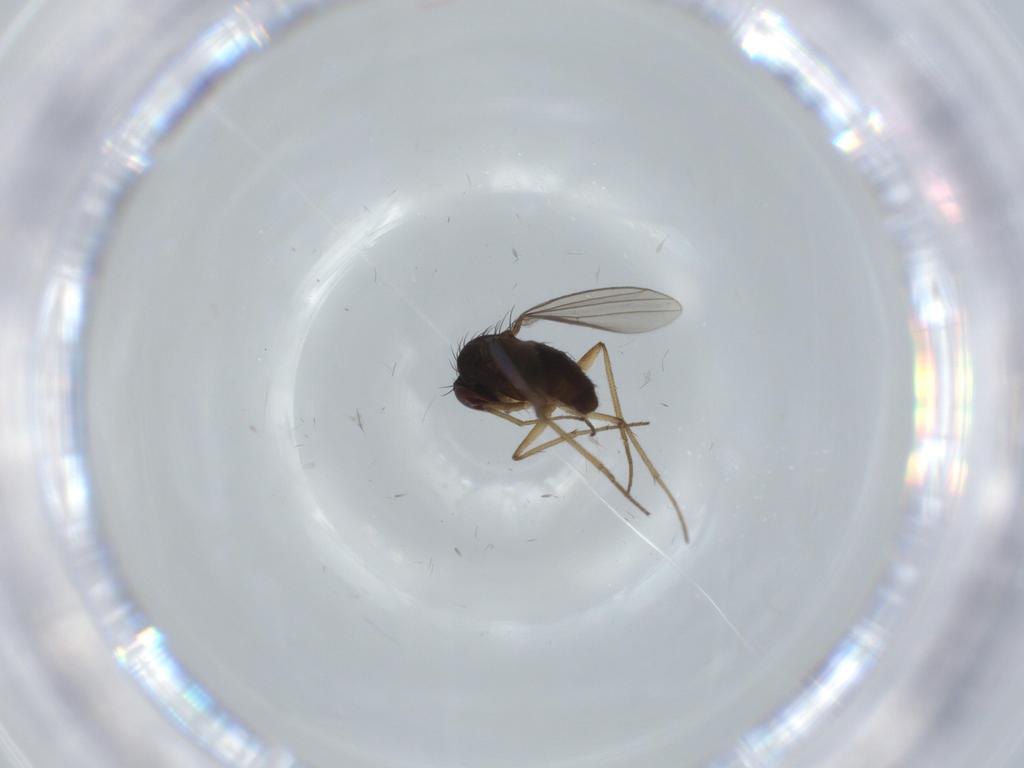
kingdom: Animalia
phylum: Arthropoda
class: Insecta
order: Diptera
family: Dolichopodidae
